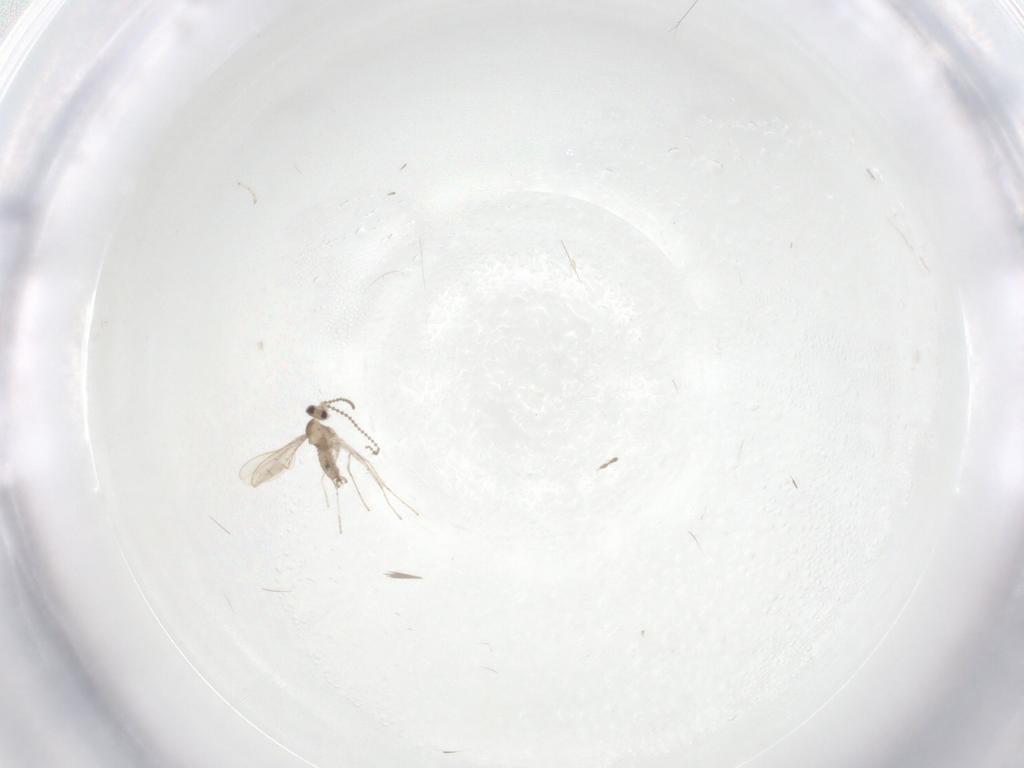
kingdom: Animalia
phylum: Arthropoda
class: Insecta
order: Diptera
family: Cecidomyiidae
